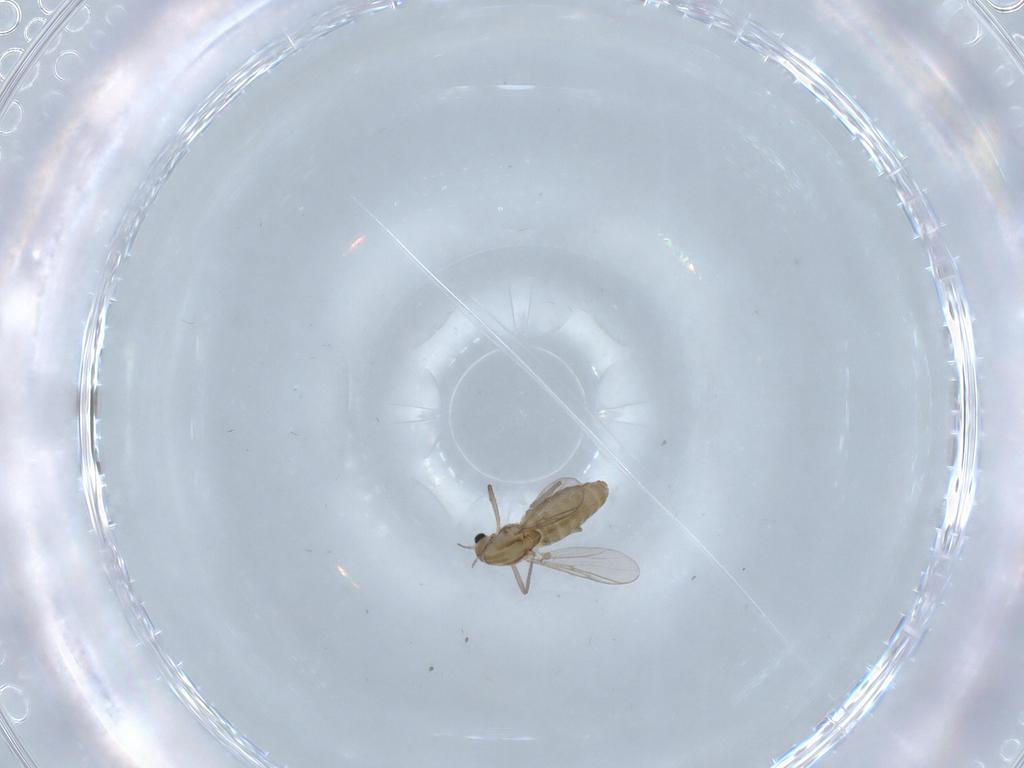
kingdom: Animalia
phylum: Arthropoda
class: Insecta
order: Diptera
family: Chironomidae
